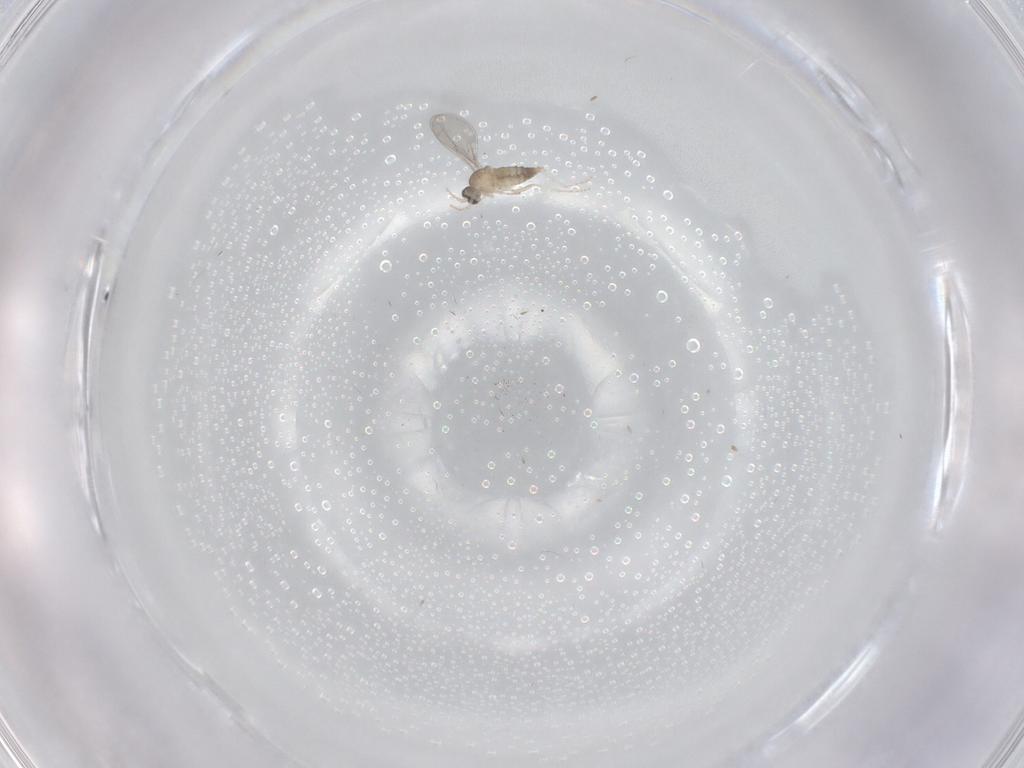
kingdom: Animalia
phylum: Arthropoda
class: Insecta
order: Diptera
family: Cecidomyiidae
